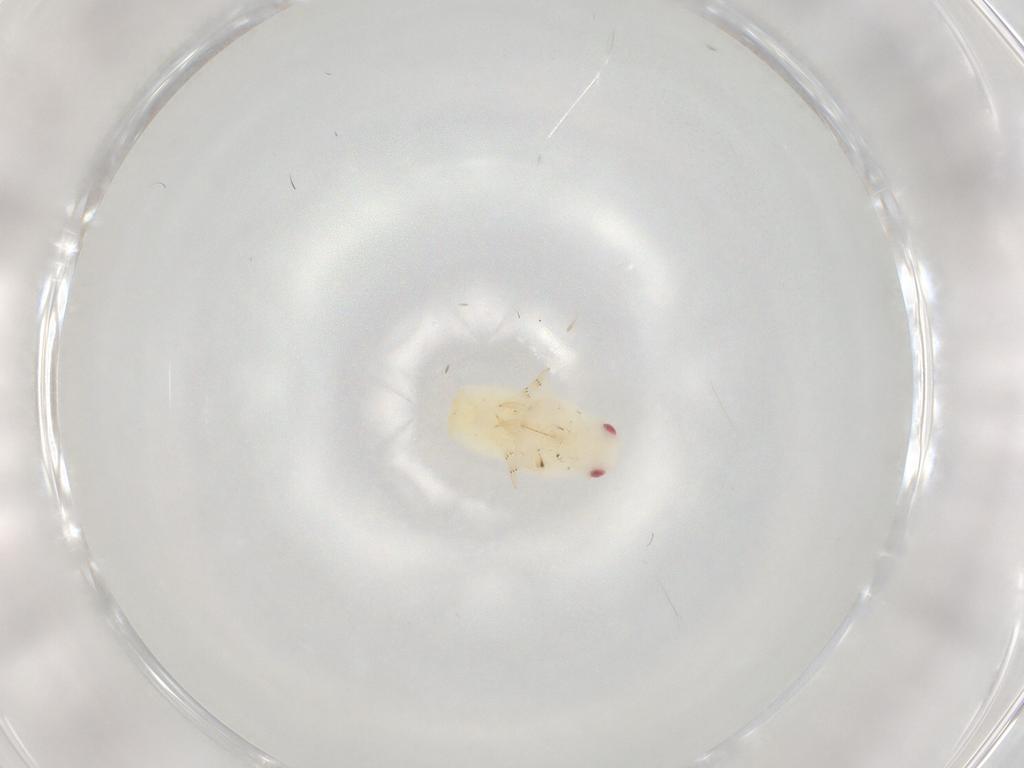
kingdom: Animalia
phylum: Arthropoda
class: Insecta
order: Hemiptera
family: Flatidae
